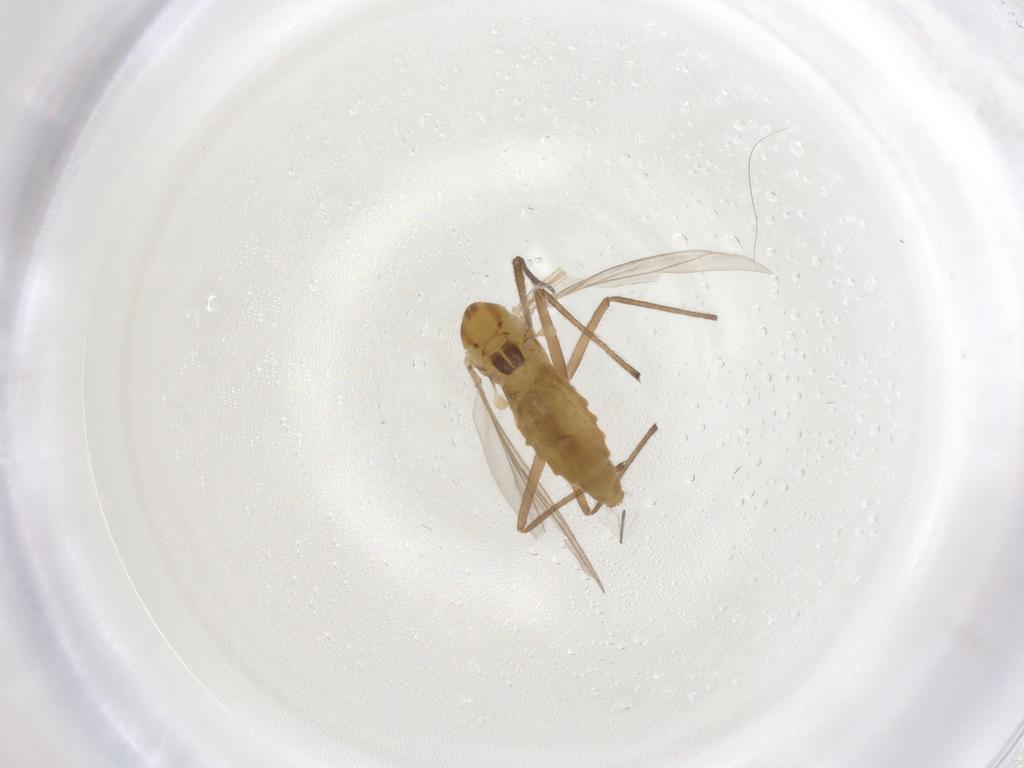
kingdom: Animalia
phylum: Arthropoda
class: Insecta
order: Diptera
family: Chironomidae
